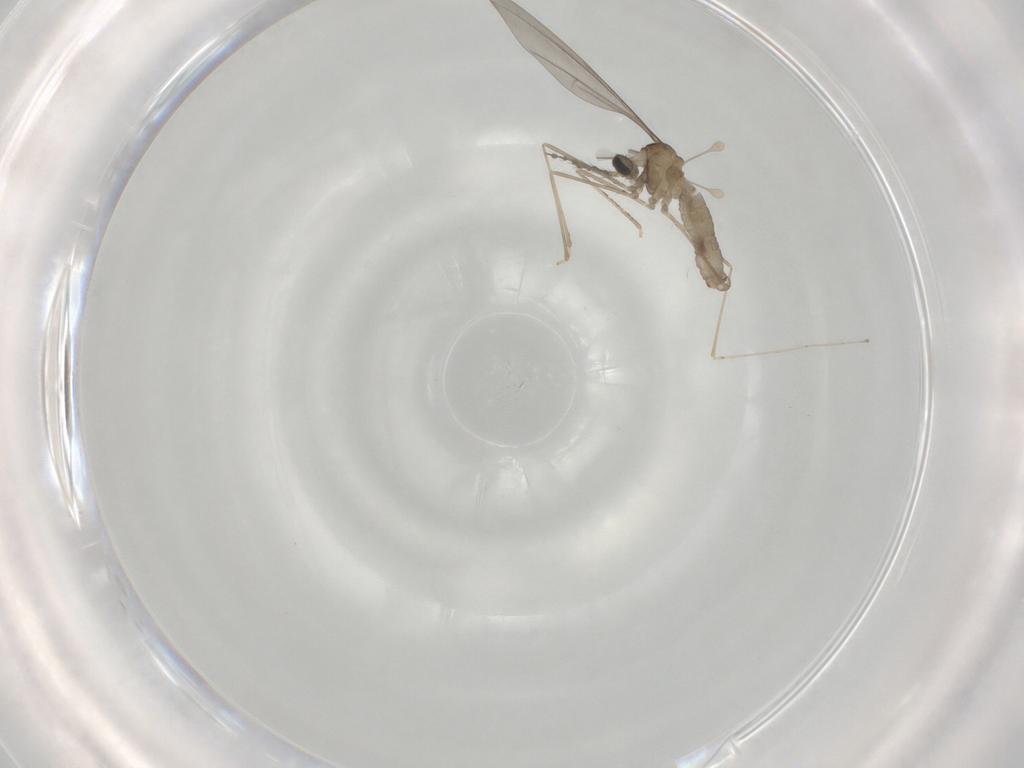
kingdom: Animalia
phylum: Arthropoda
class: Insecta
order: Diptera
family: Cecidomyiidae
